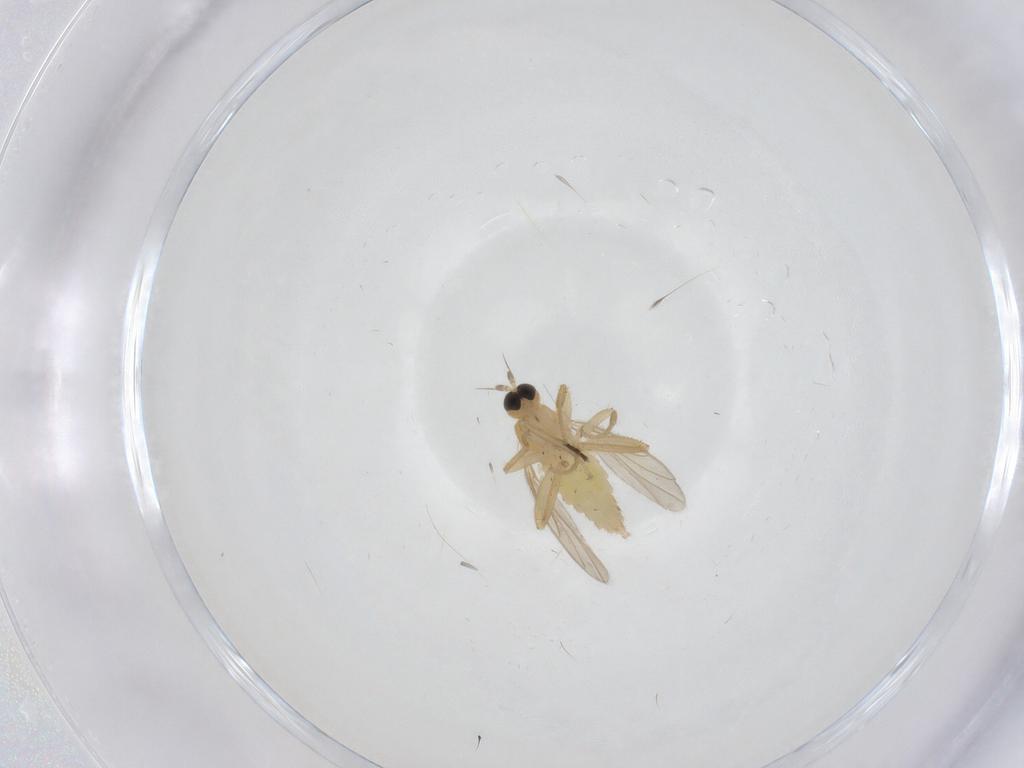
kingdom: Animalia
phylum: Arthropoda
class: Insecta
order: Diptera
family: Hybotidae
